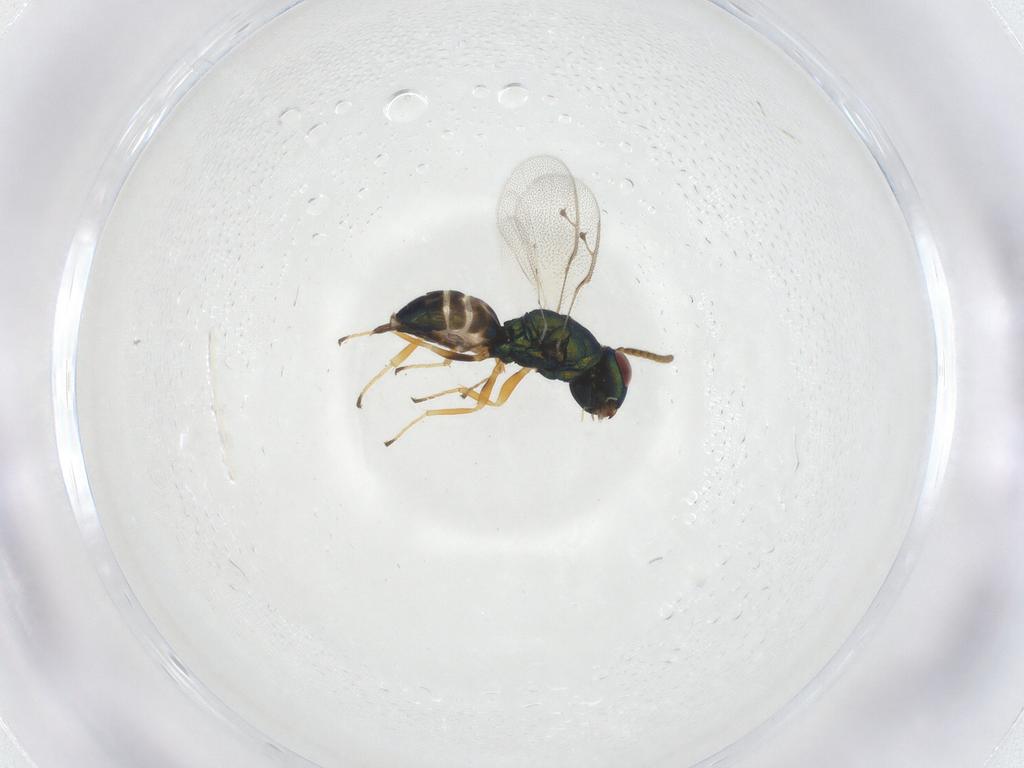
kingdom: Animalia
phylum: Arthropoda
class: Insecta
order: Hymenoptera
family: Pteromalidae
